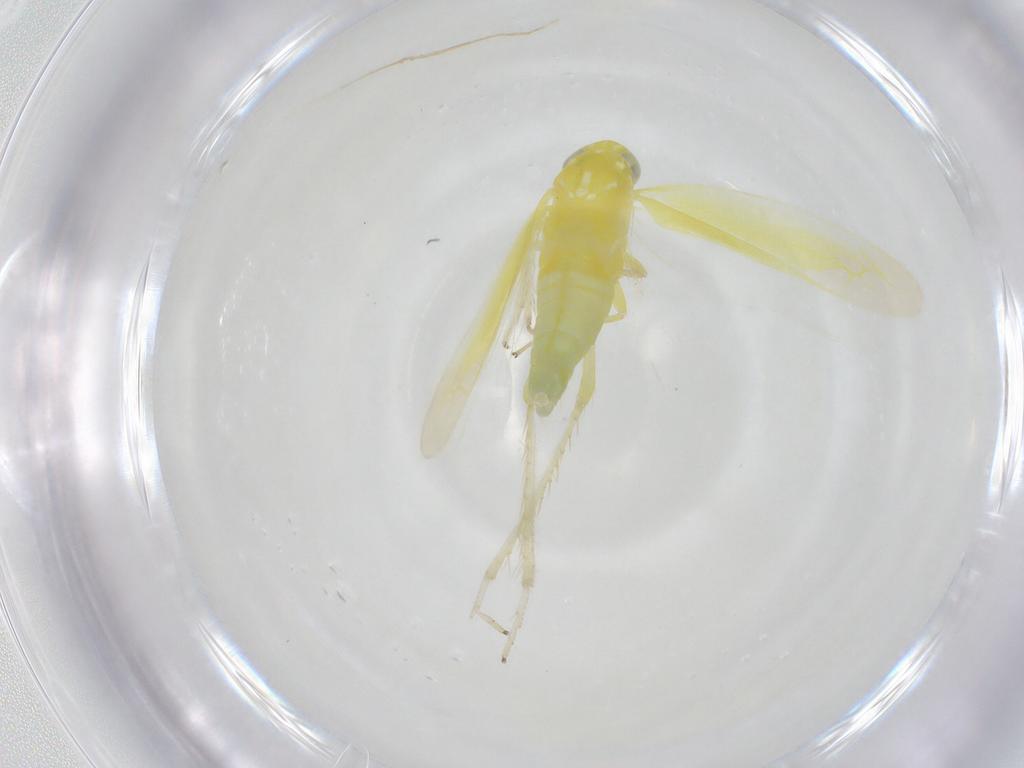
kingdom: Animalia
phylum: Arthropoda
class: Insecta
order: Hemiptera
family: Cicadellidae
